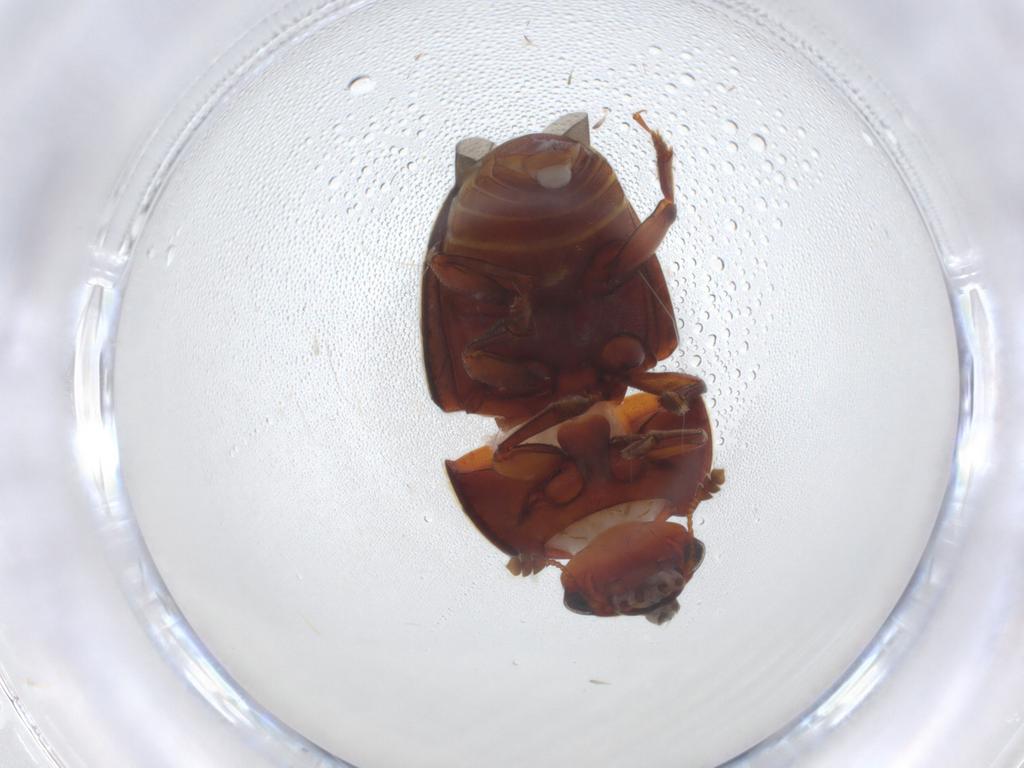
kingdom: Animalia
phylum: Arthropoda
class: Insecta
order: Coleoptera
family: Nitidulidae
